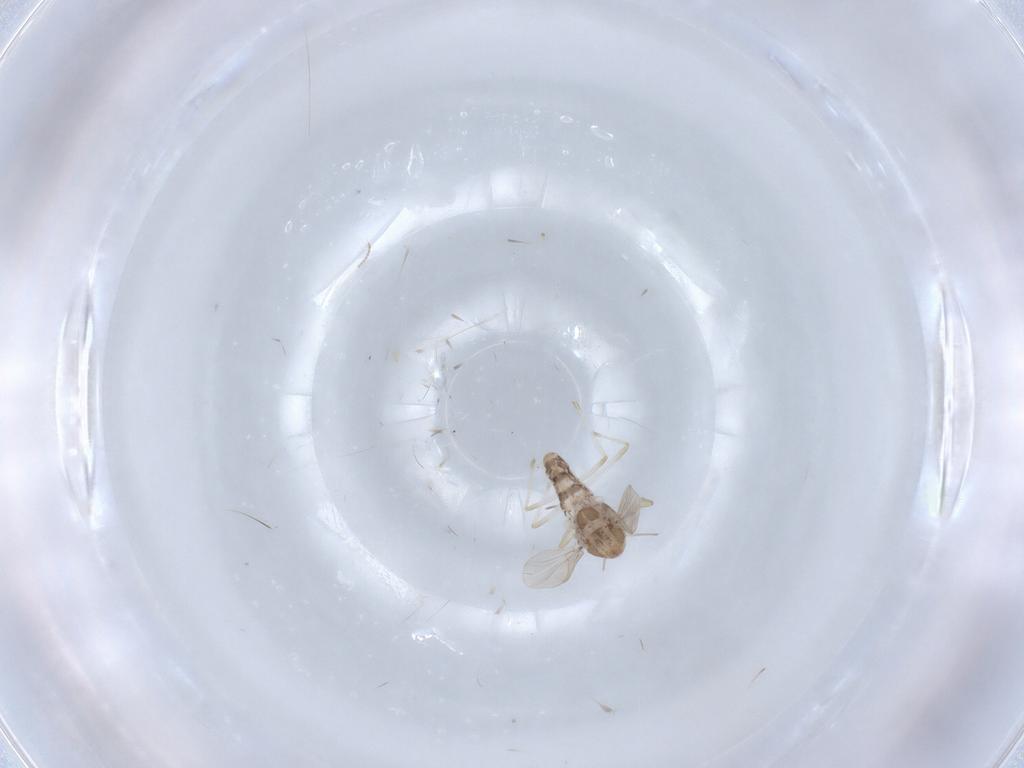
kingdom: Animalia
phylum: Arthropoda
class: Insecta
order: Diptera
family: Chironomidae
